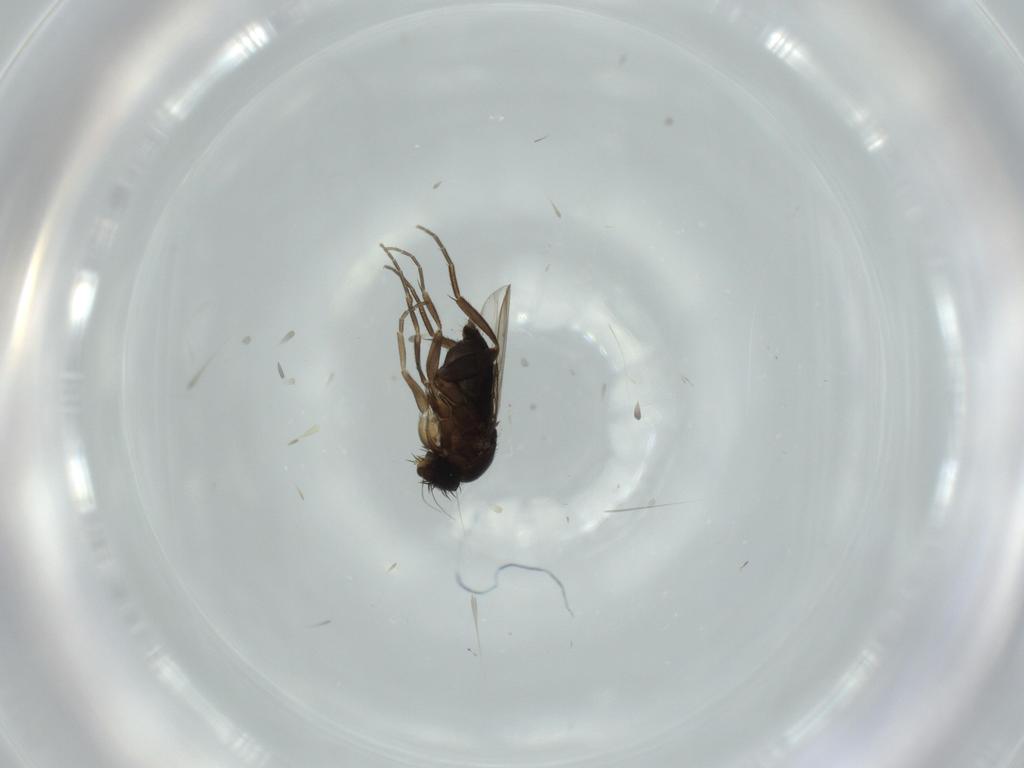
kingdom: Animalia
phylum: Arthropoda
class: Insecta
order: Diptera
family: Phoridae
